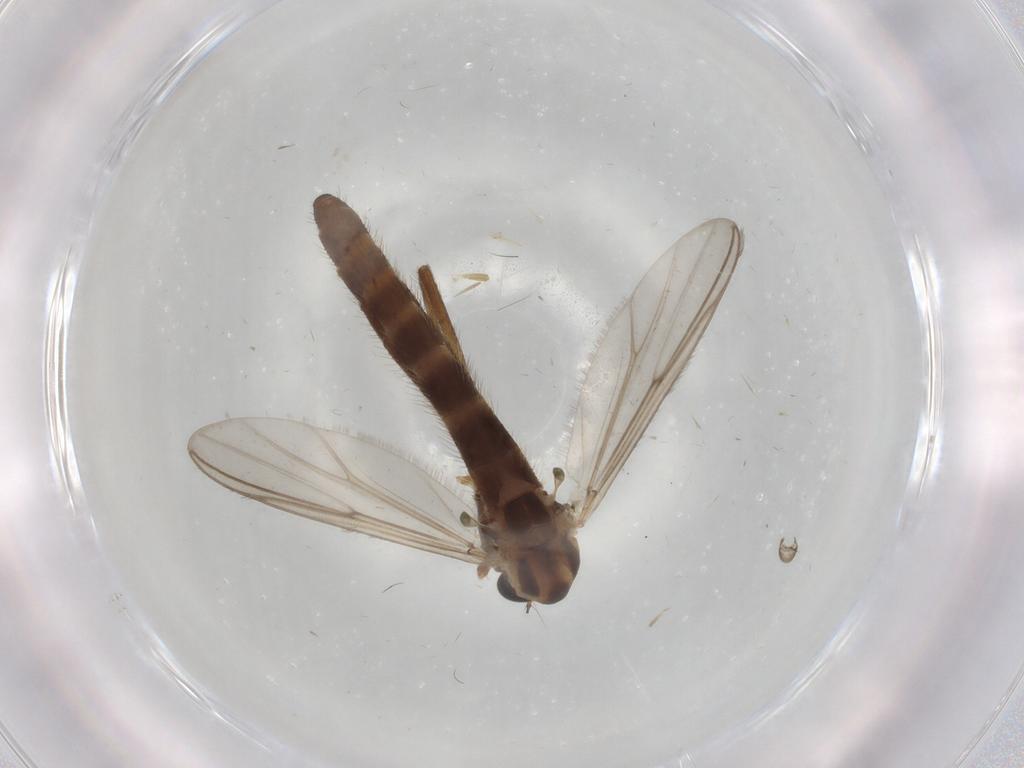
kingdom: Animalia
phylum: Arthropoda
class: Insecta
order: Diptera
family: Chironomidae
